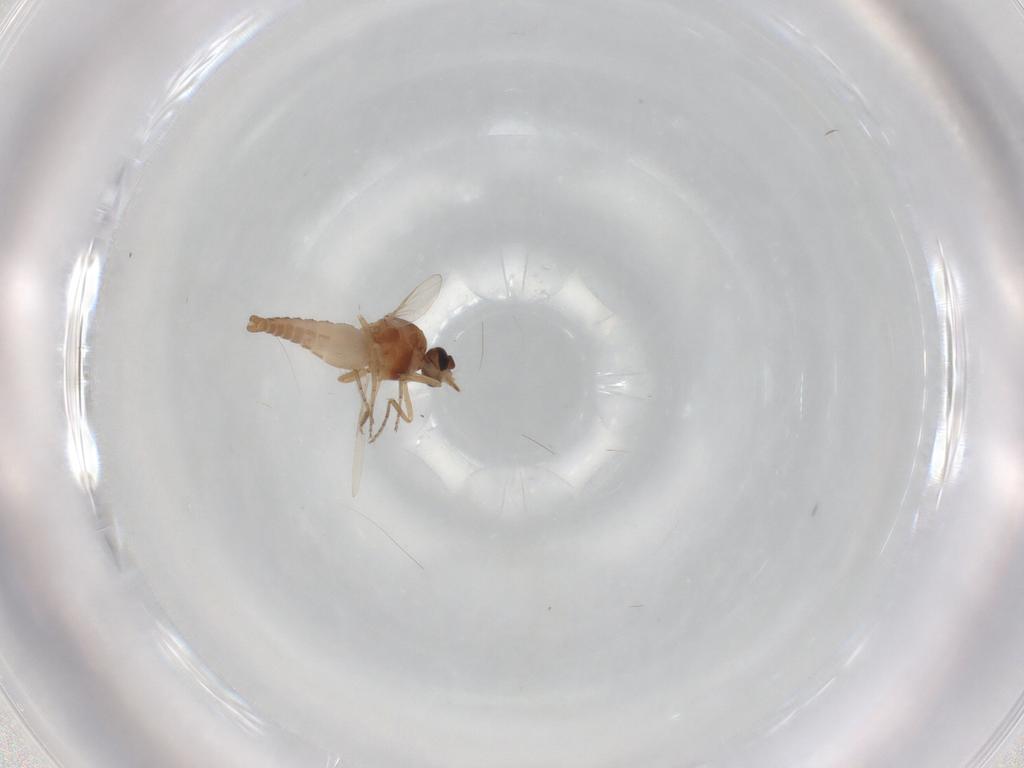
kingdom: Animalia
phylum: Arthropoda
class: Insecta
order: Diptera
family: Ceratopogonidae
